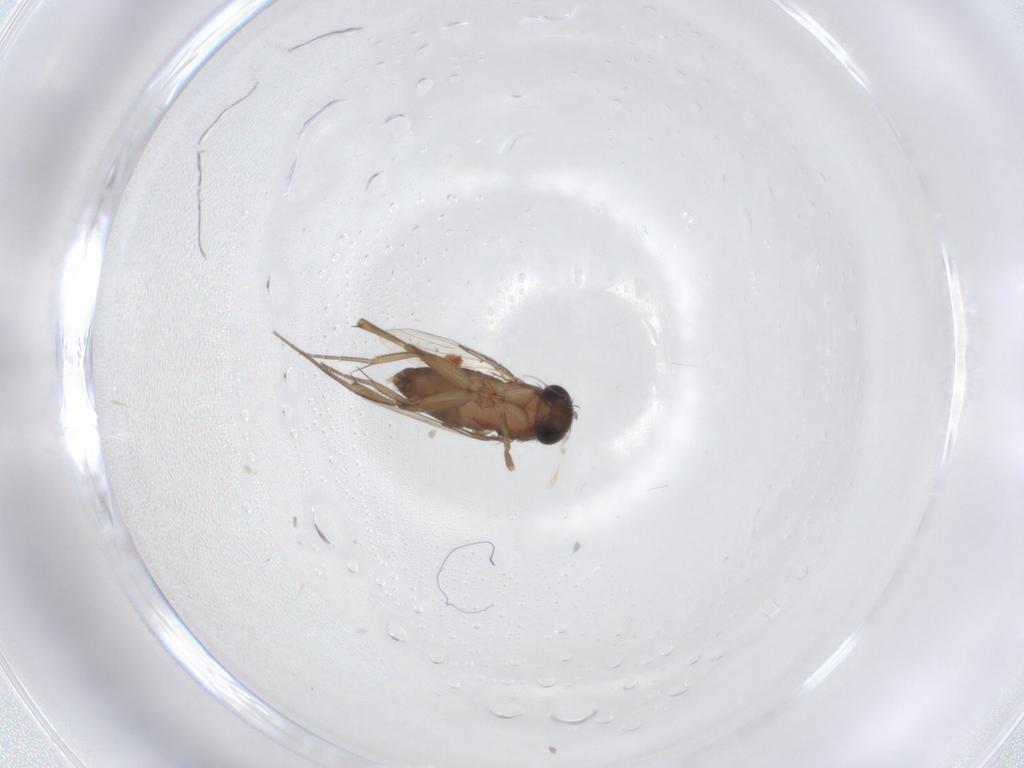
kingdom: Animalia
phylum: Arthropoda
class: Insecta
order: Diptera
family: Phoridae
